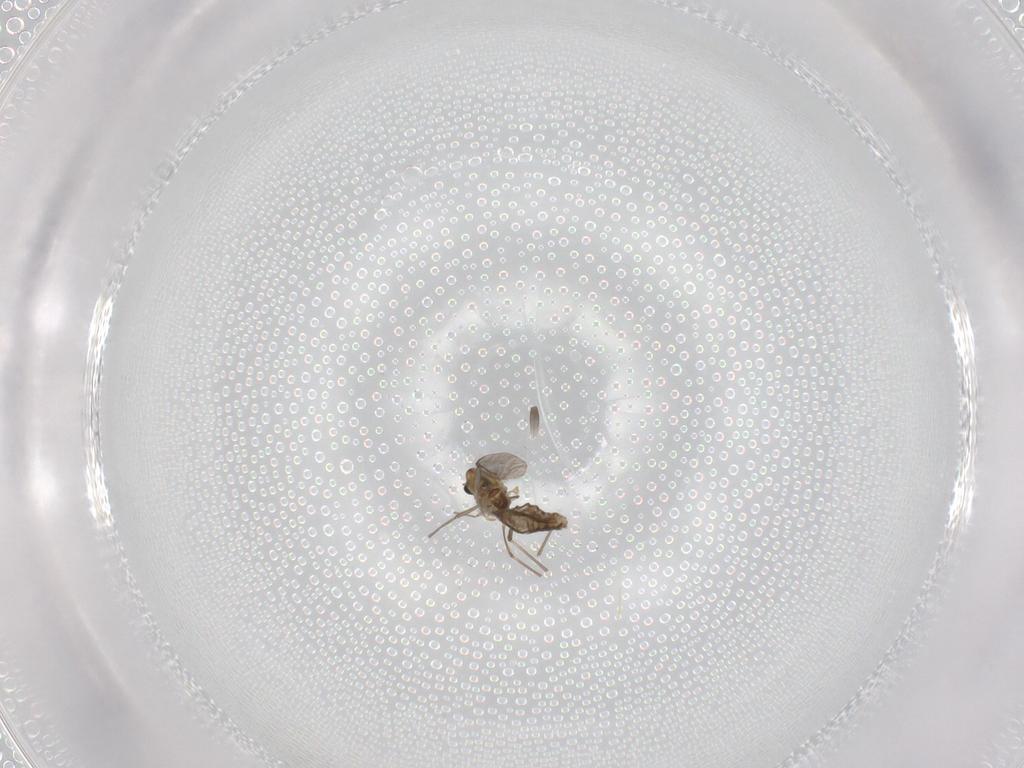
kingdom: Animalia
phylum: Arthropoda
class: Insecta
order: Diptera
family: Chironomidae
